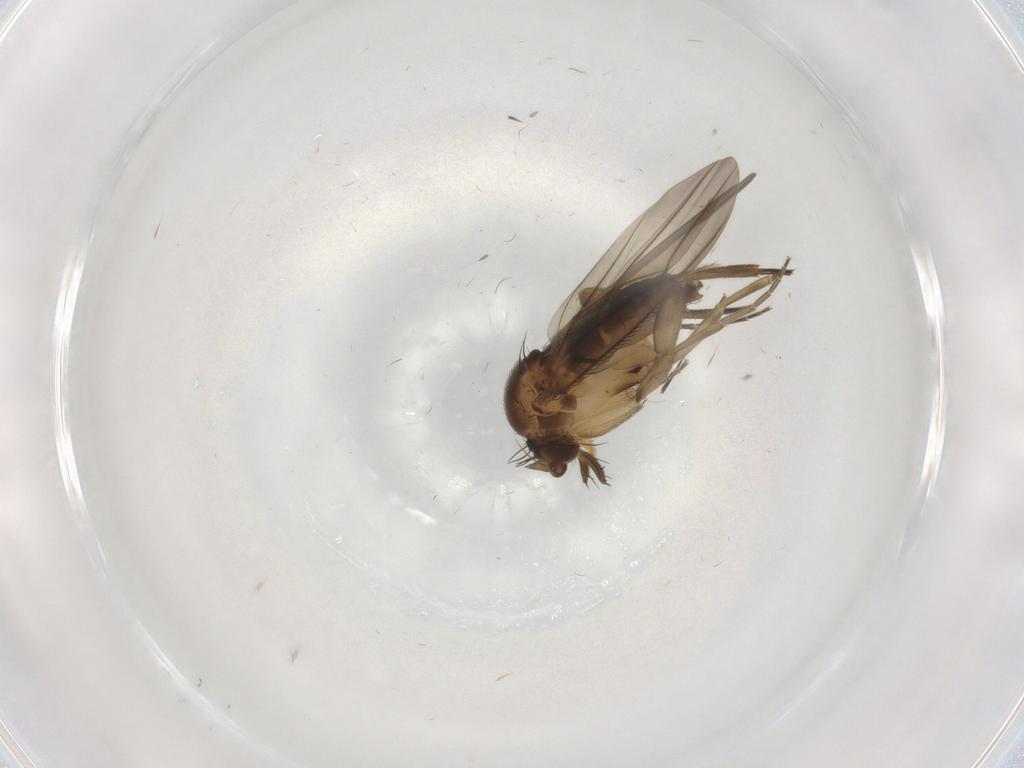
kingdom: Animalia
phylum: Arthropoda
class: Insecta
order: Diptera
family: Phoridae
